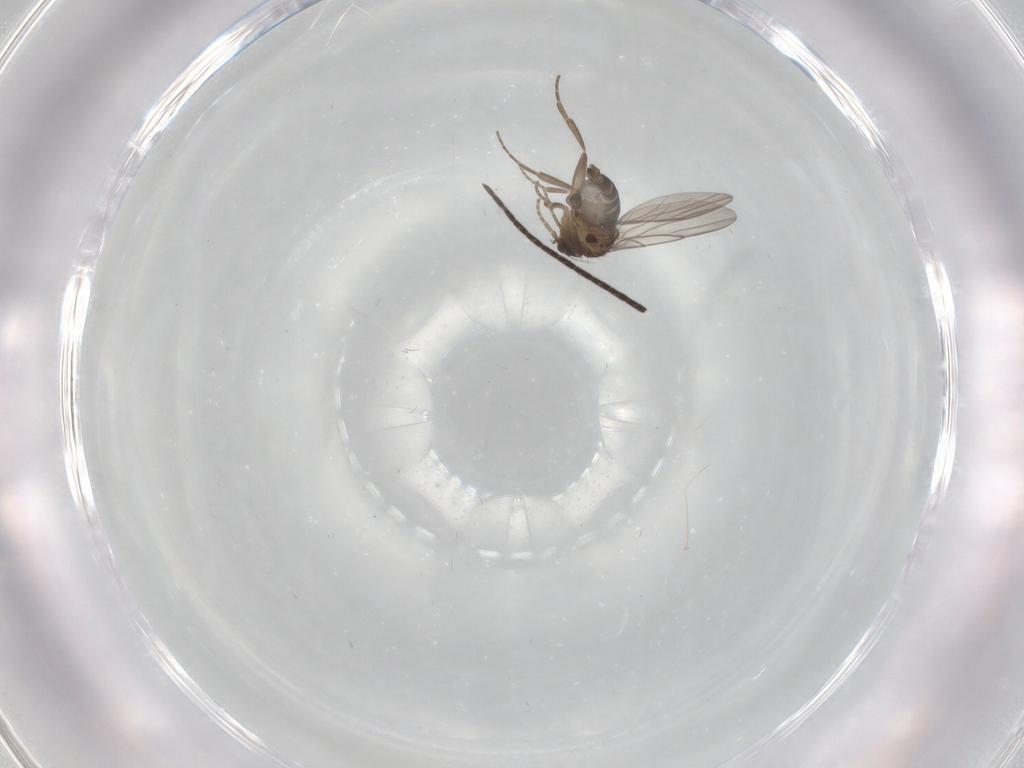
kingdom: Animalia
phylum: Arthropoda
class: Insecta
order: Diptera
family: Phoridae
